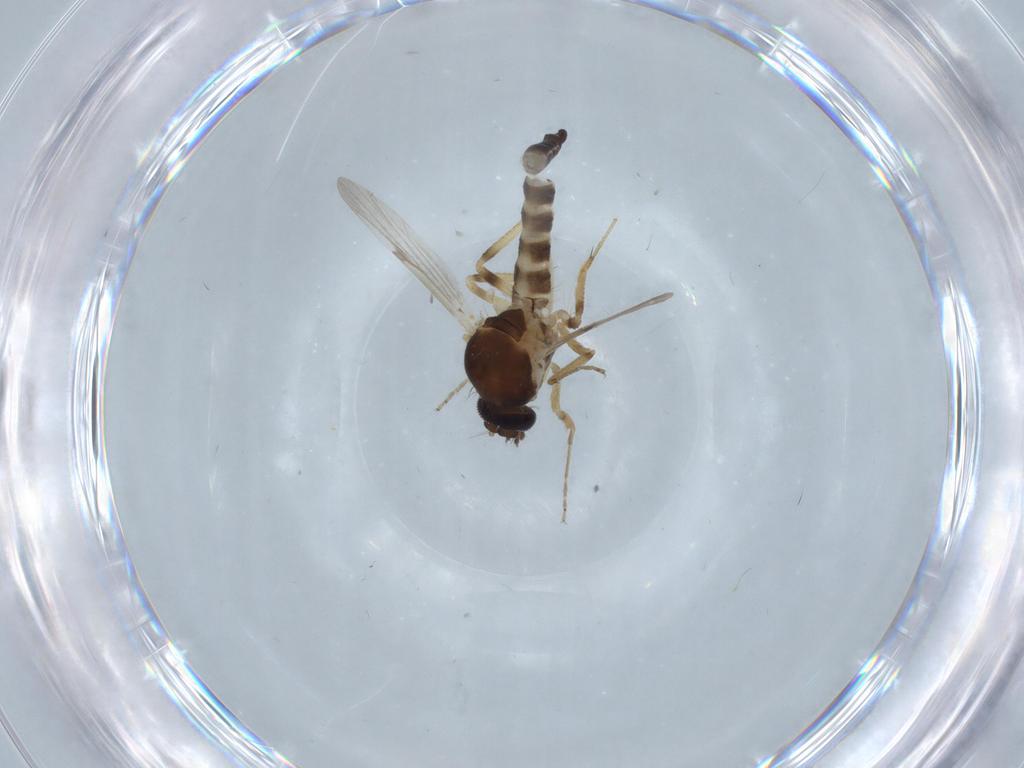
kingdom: Animalia
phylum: Arthropoda
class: Insecta
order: Diptera
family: Ceratopogonidae
